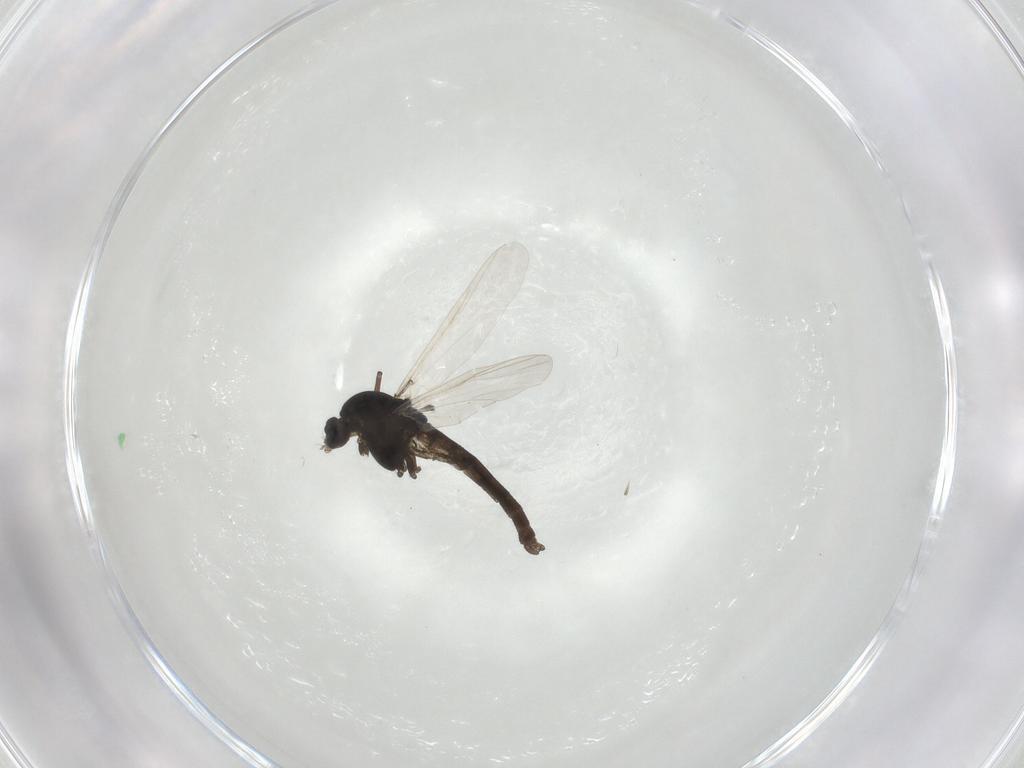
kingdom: Animalia
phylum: Arthropoda
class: Insecta
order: Diptera
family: Chironomidae
